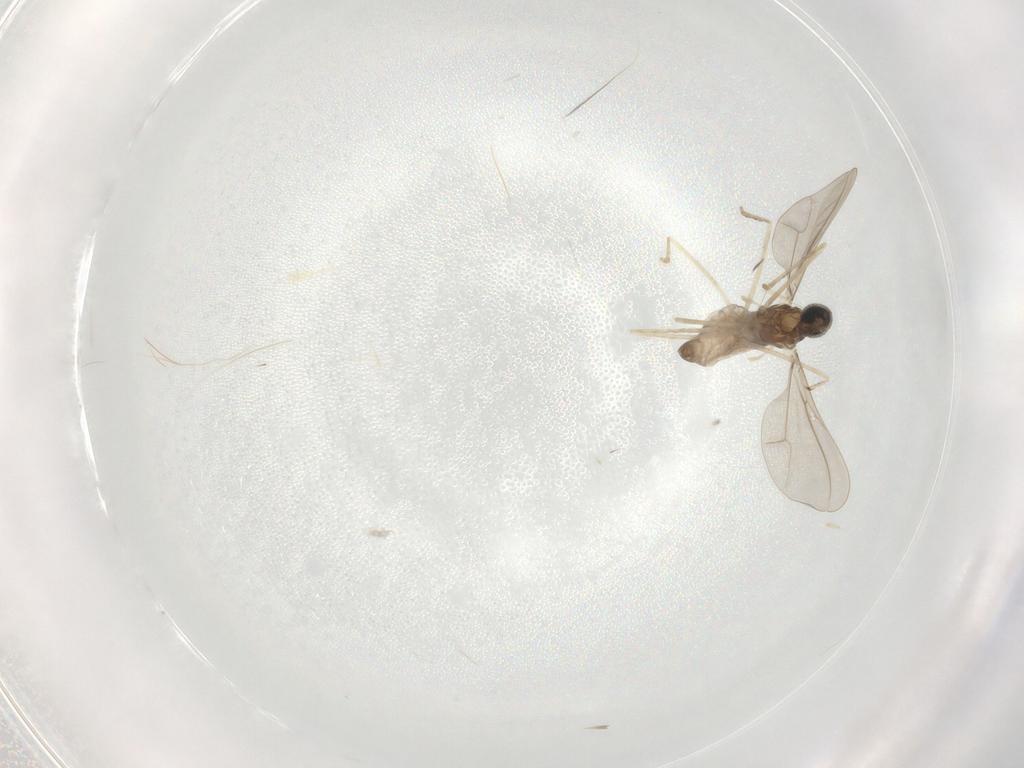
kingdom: Animalia
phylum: Arthropoda
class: Insecta
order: Diptera
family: Cecidomyiidae
